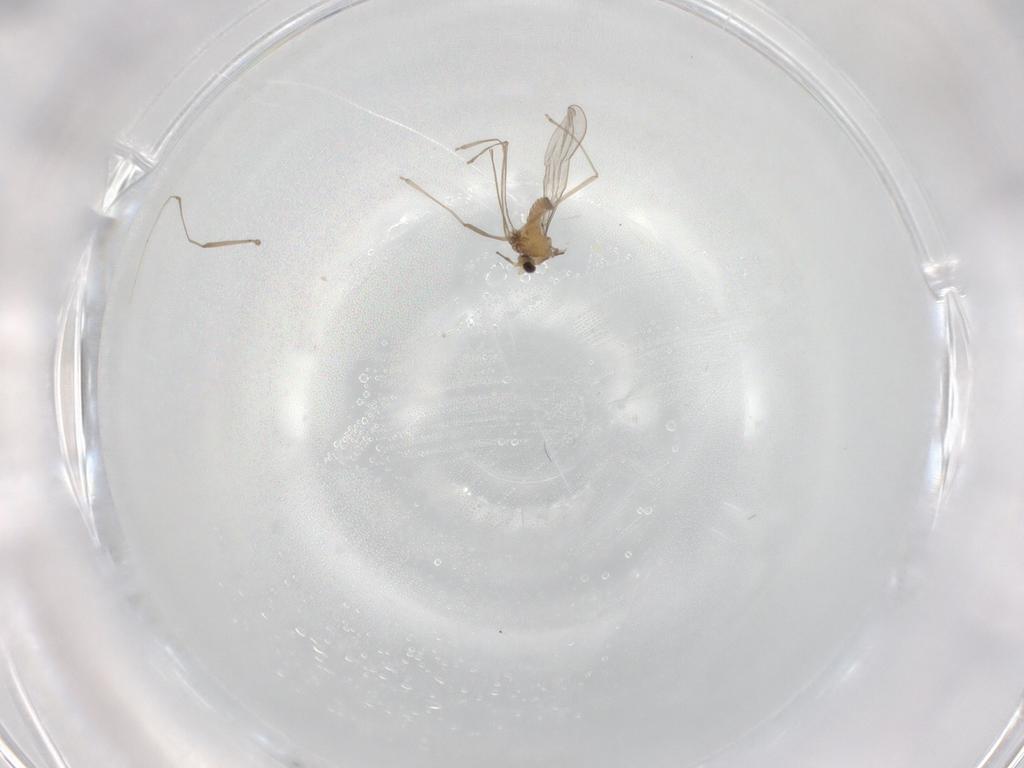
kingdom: Animalia
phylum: Arthropoda
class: Insecta
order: Diptera
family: Cecidomyiidae
